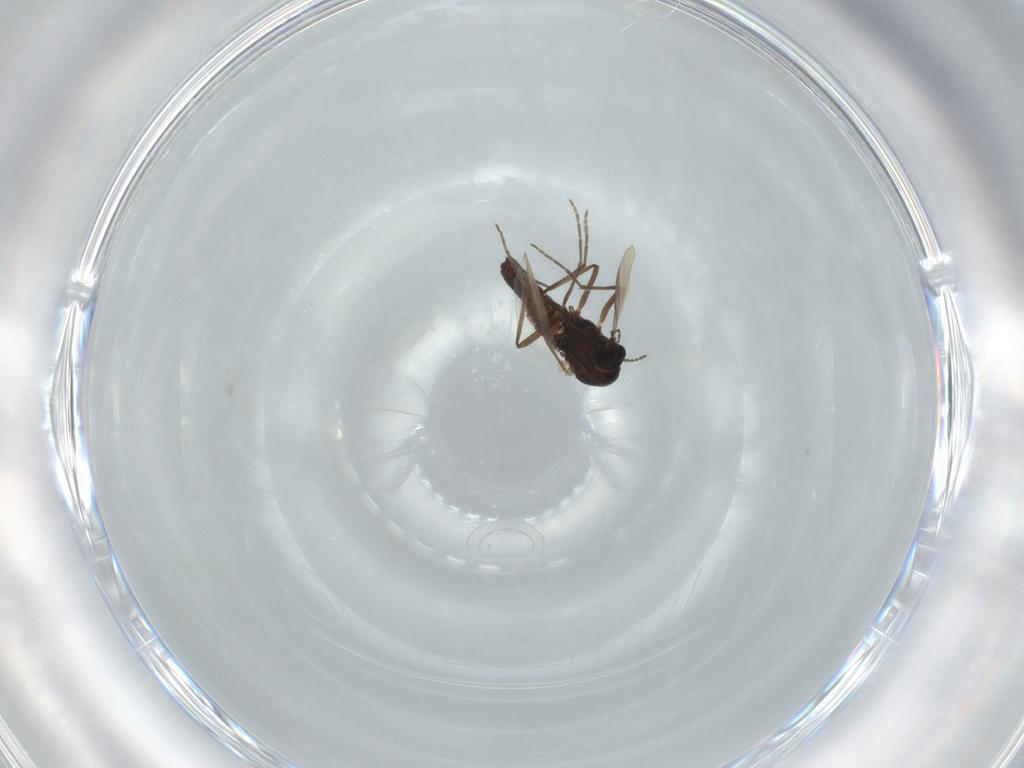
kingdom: Animalia
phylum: Arthropoda
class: Insecta
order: Diptera
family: Chironomidae
